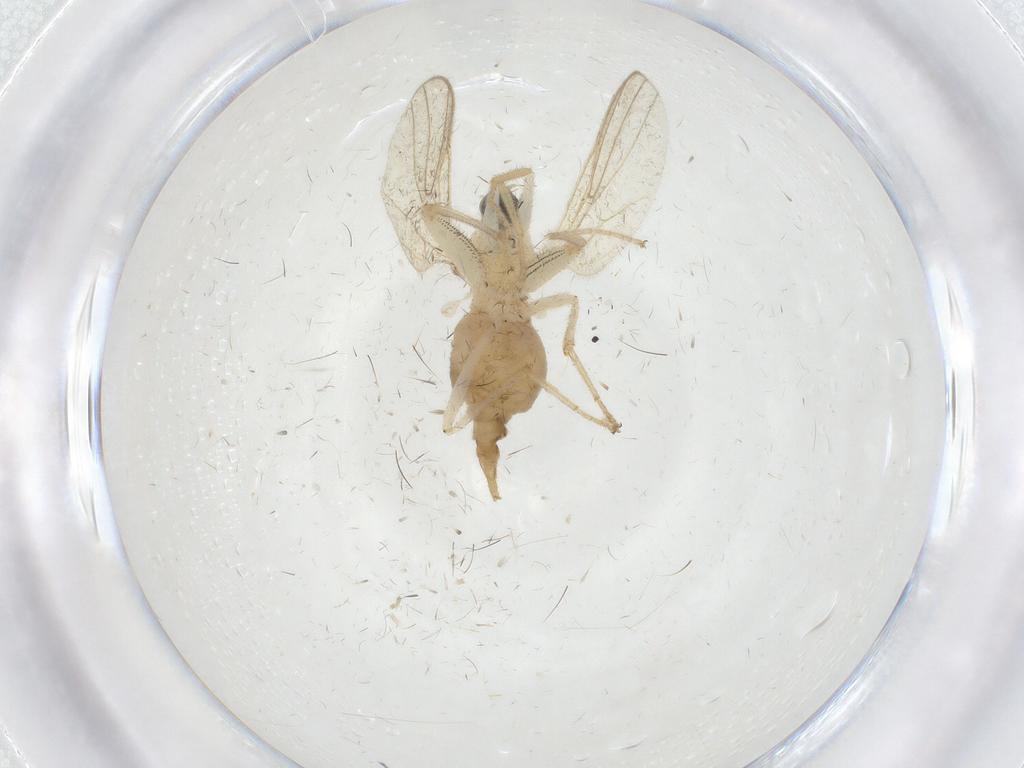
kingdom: Animalia
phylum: Arthropoda
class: Insecta
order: Diptera
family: Hybotidae
